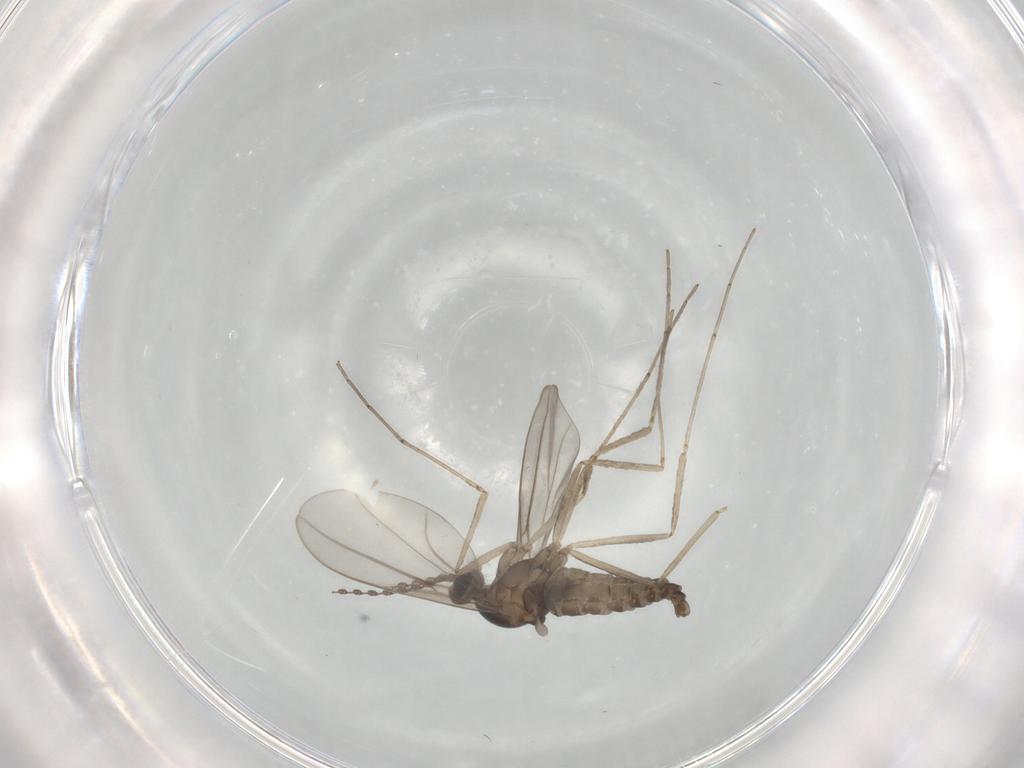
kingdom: Animalia
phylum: Arthropoda
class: Insecta
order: Diptera
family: Cecidomyiidae
